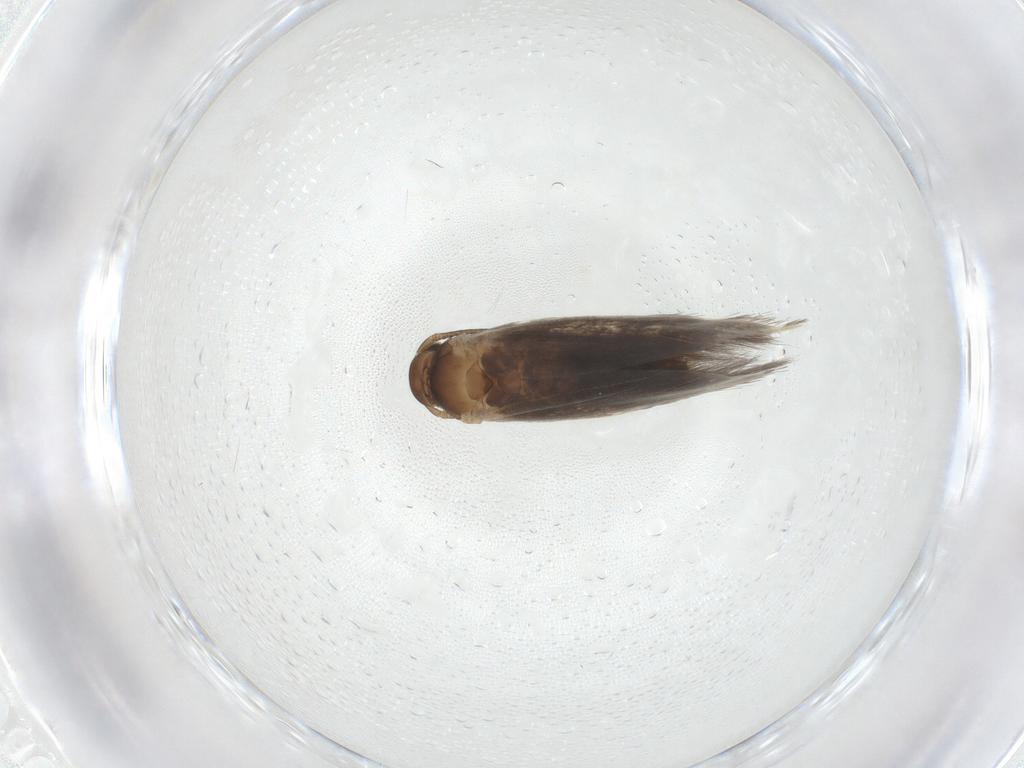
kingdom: Animalia
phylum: Arthropoda
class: Insecta
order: Lepidoptera
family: Elachistidae
